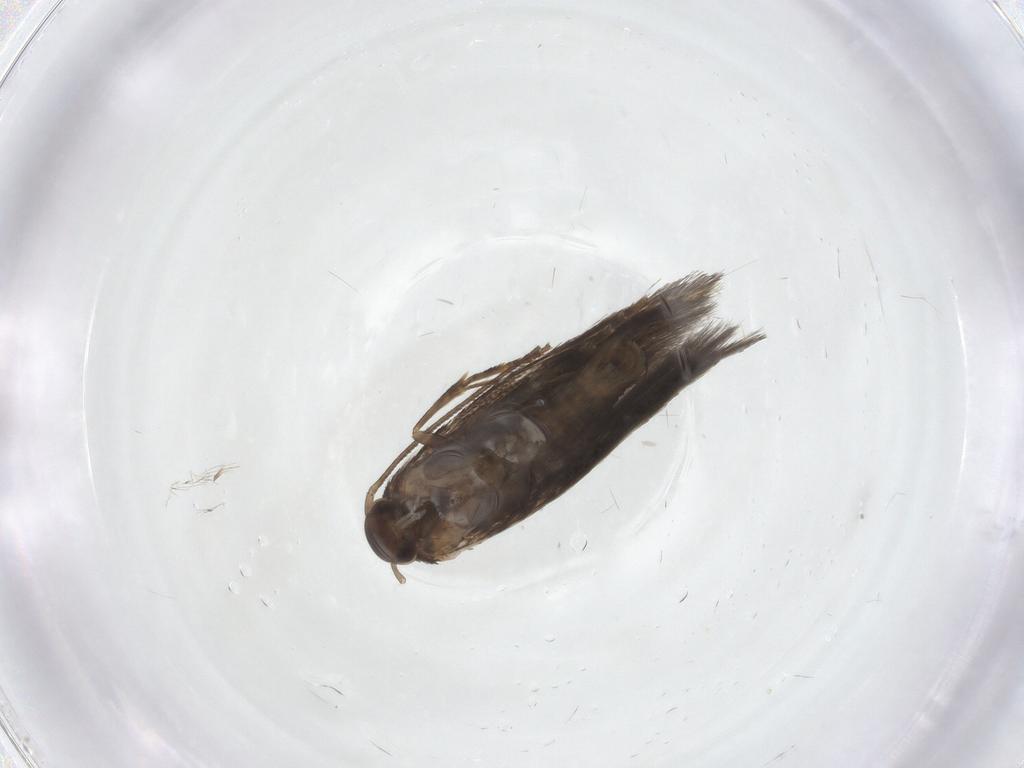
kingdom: Animalia
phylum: Arthropoda
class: Insecta
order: Lepidoptera
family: Elachistidae
